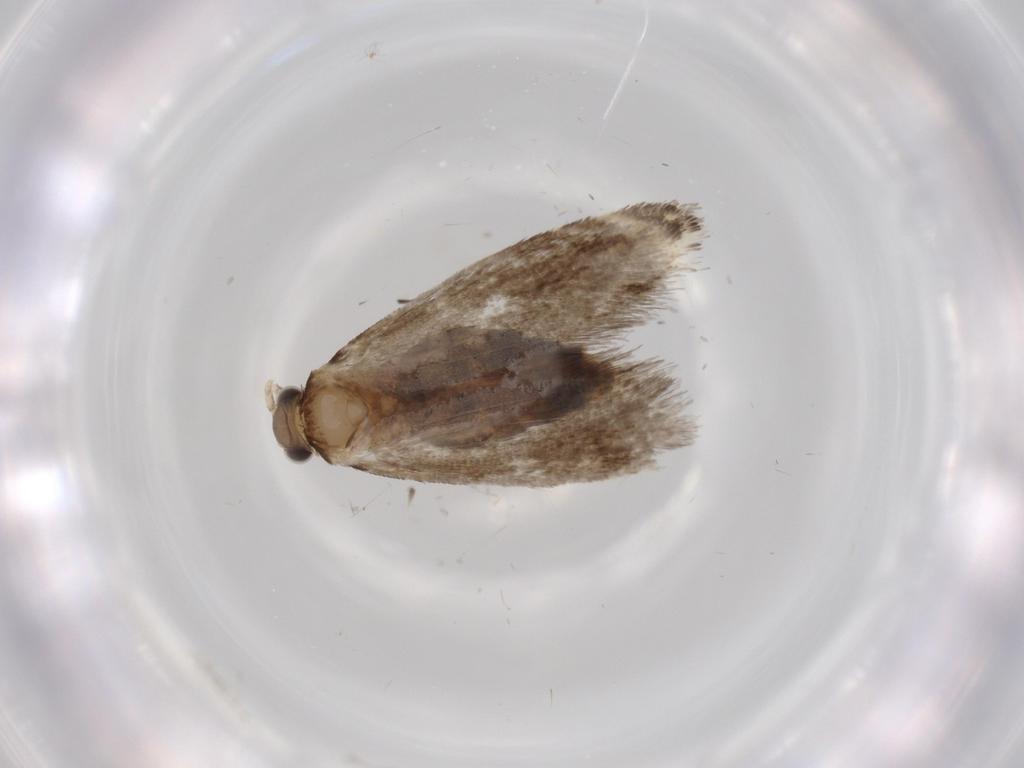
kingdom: Animalia
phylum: Arthropoda
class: Insecta
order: Lepidoptera
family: Tineidae
